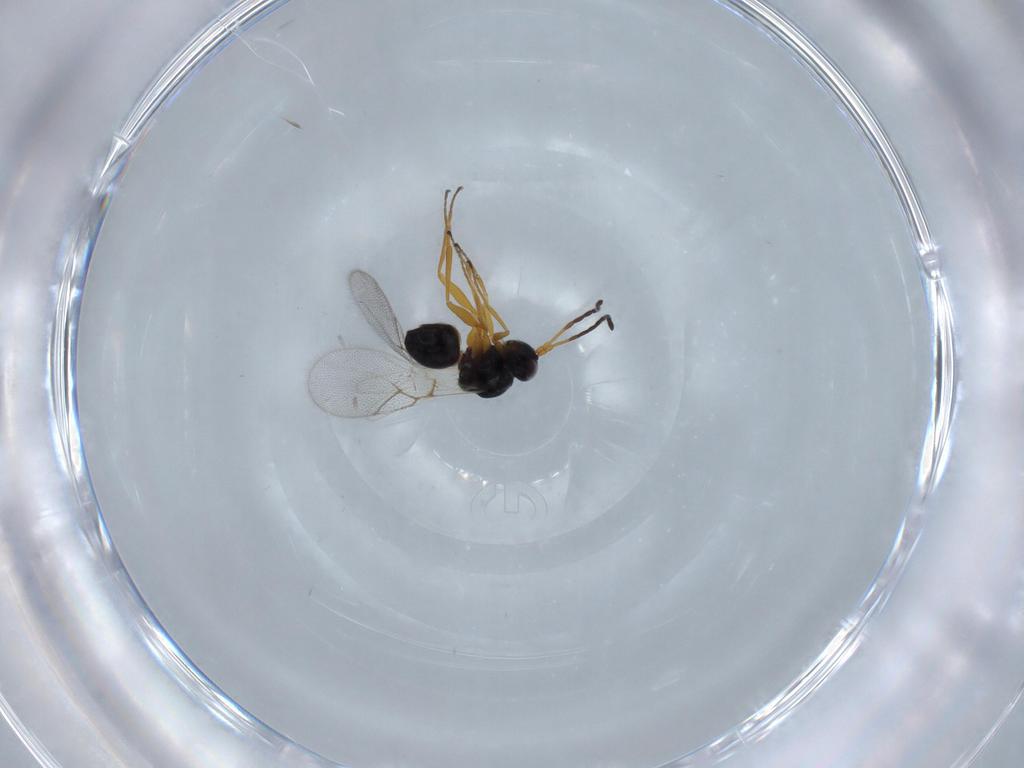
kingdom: Animalia
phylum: Arthropoda
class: Insecta
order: Hymenoptera
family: Figitidae
